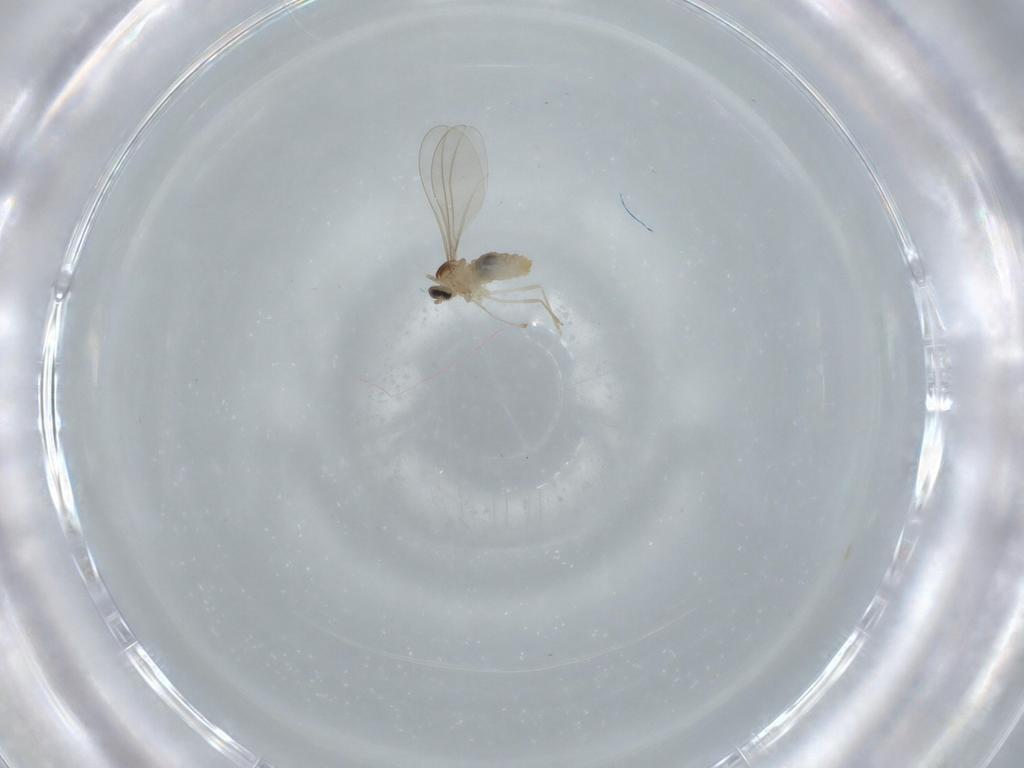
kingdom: Animalia
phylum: Arthropoda
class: Insecta
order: Diptera
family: Cecidomyiidae
